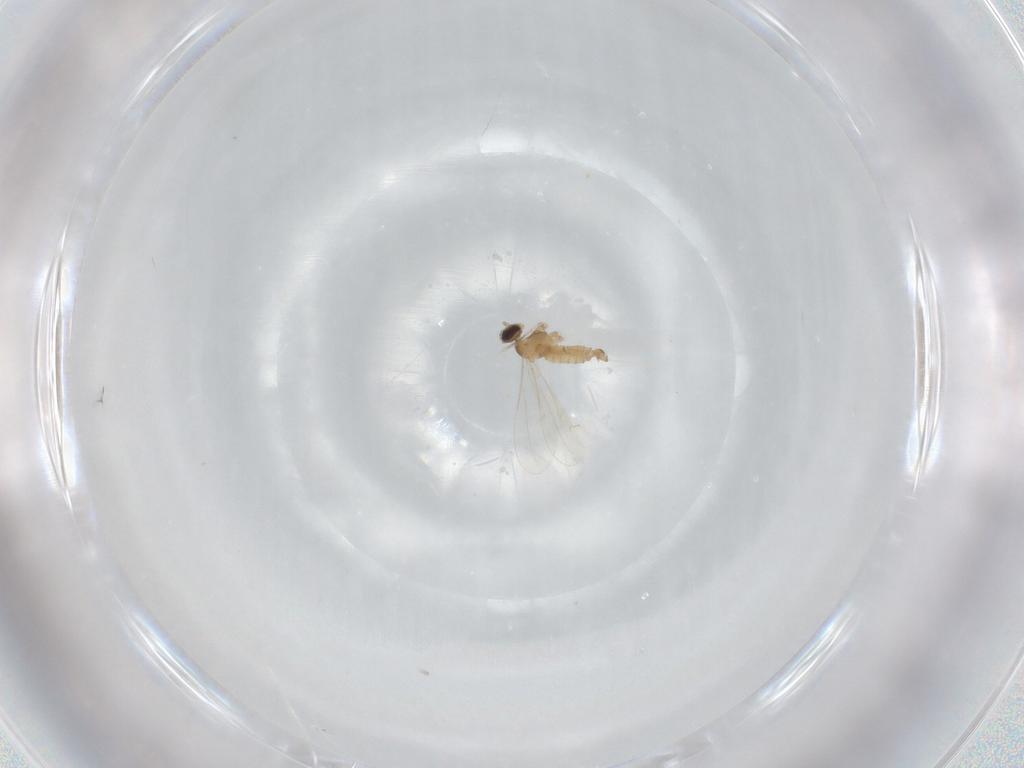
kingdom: Animalia
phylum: Arthropoda
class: Insecta
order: Diptera
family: Cecidomyiidae
